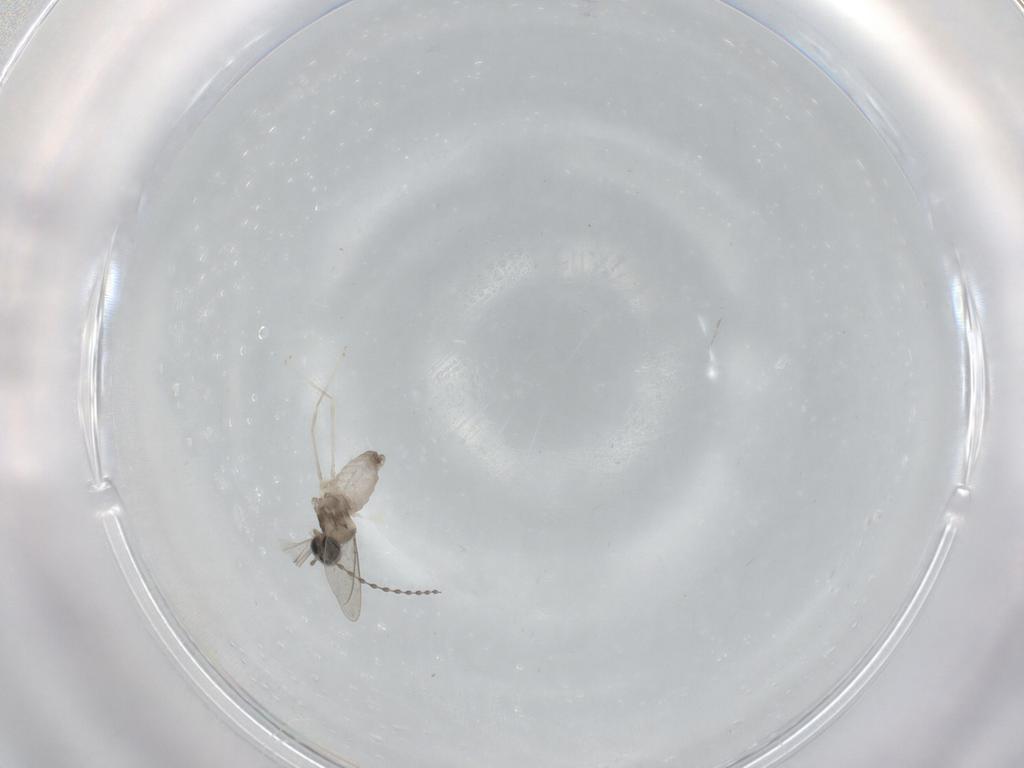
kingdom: Animalia
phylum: Arthropoda
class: Insecta
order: Diptera
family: Cecidomyiidae
